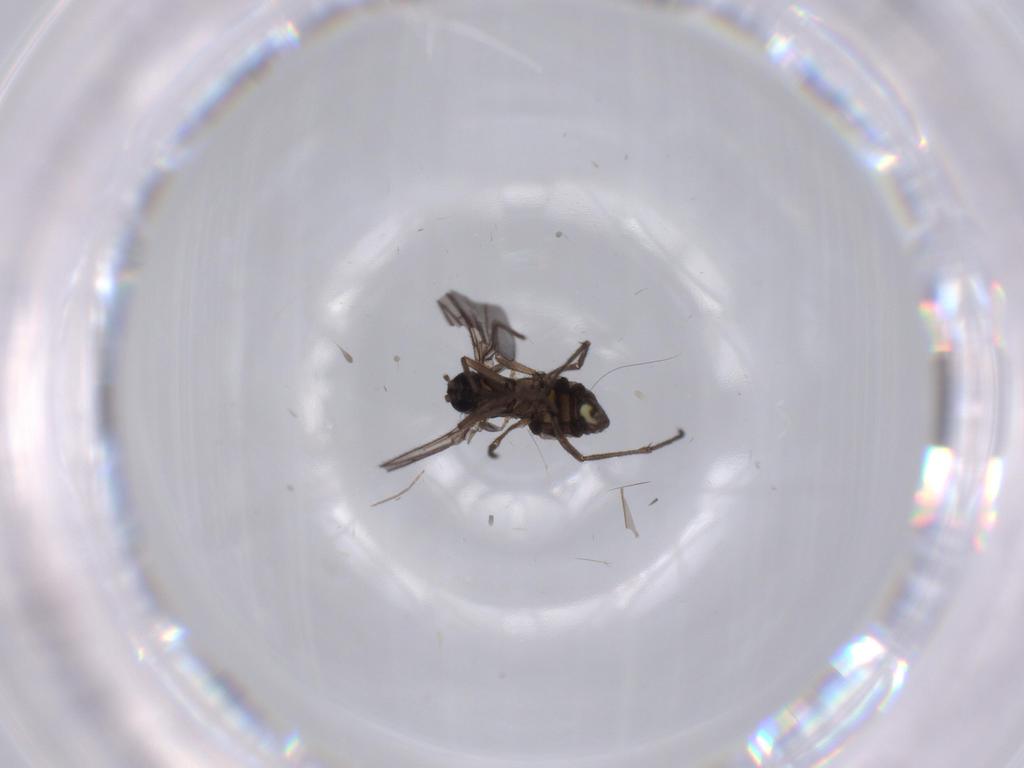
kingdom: Animalia
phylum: Arthropoda
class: Insecta
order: Diptera
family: Sciaridae
